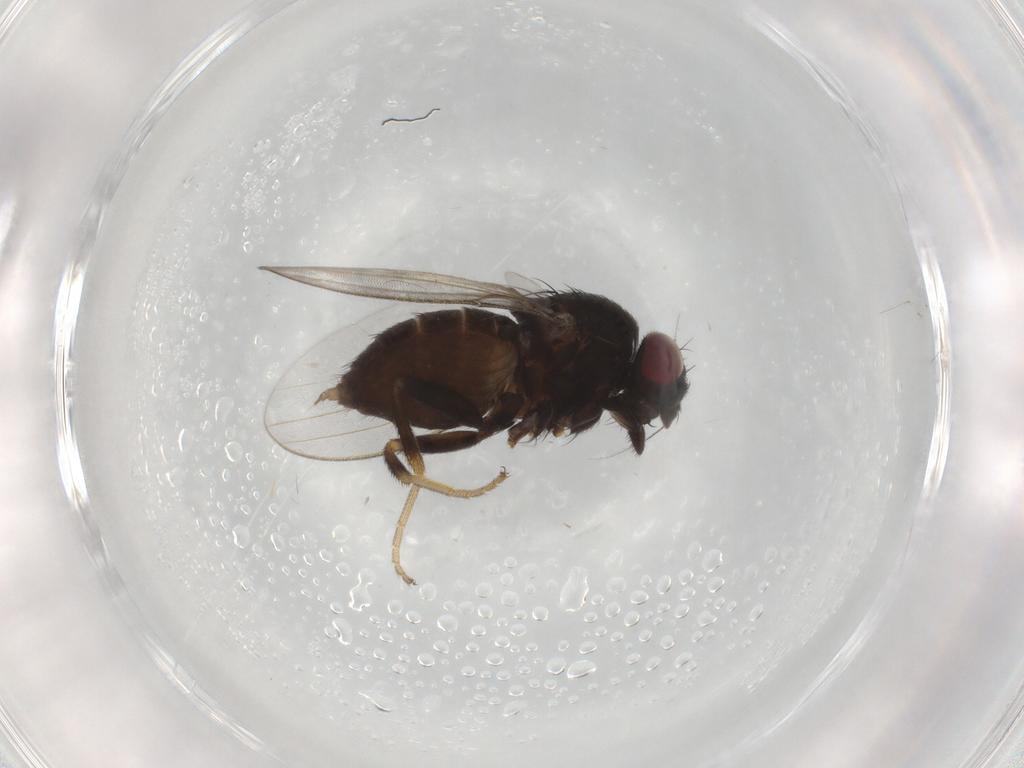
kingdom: Animalia
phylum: Arthropoda
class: Insecta
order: Diptera
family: Milichiidae
